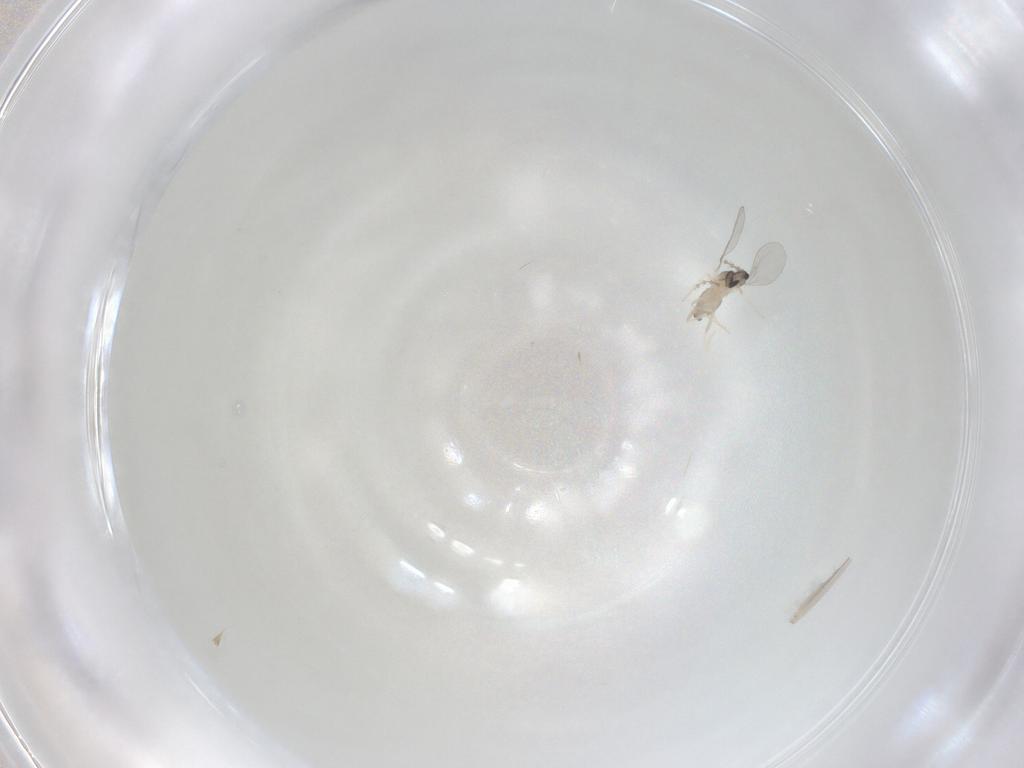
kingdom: Animalia
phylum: Arthropoda
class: Insecta
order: Diptera
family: Cecidomyiidae
